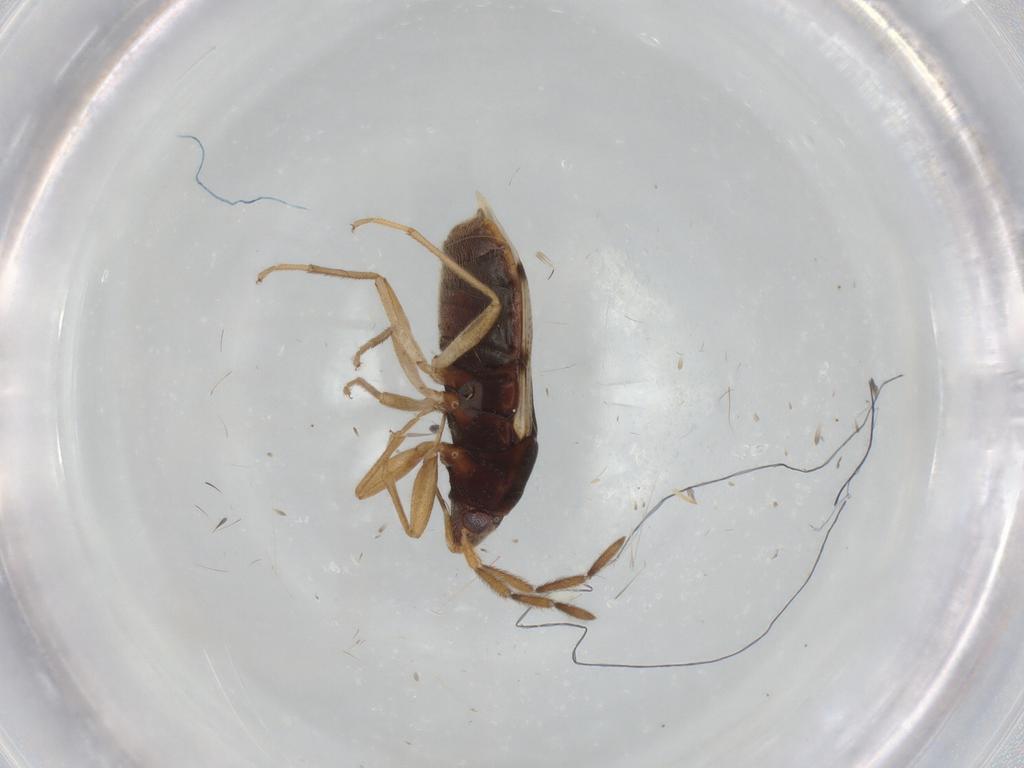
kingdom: Animalia
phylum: Arthropoda
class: Insecta
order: Hemiptera
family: Rhyparochromidae
